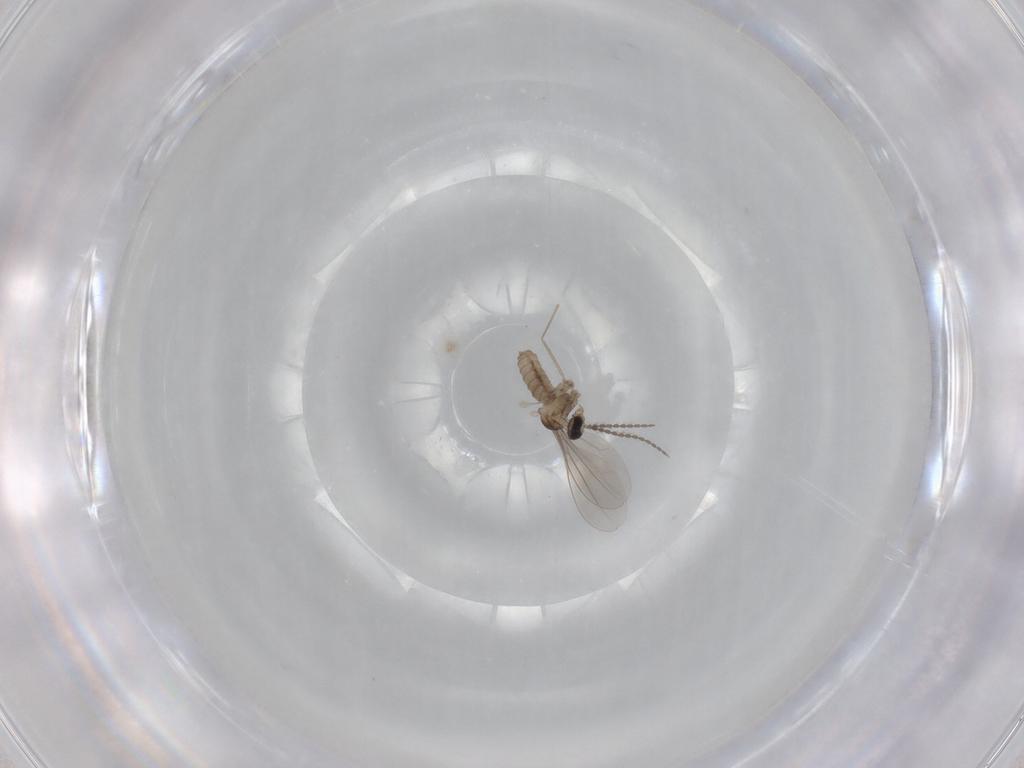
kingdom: Animalia
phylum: Arthropoda
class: Insecta
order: Diptera
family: Cecidomyiidae
